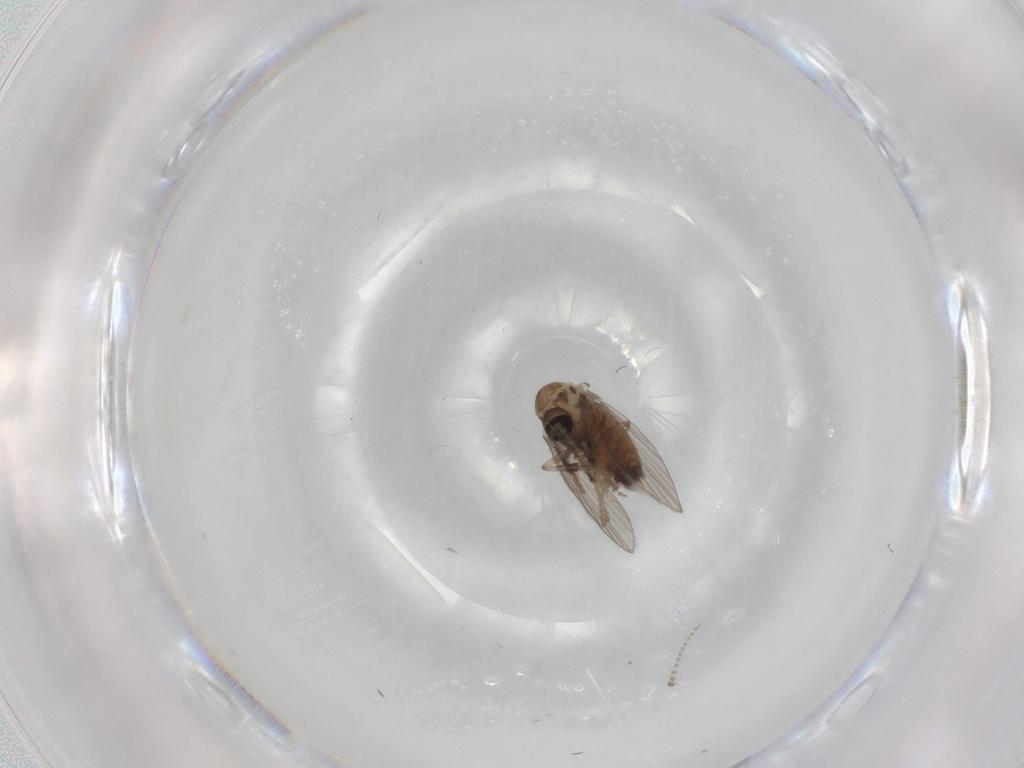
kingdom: Animalia
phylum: Arthropoda
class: Insecta
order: Diptera
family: Psychodidae
